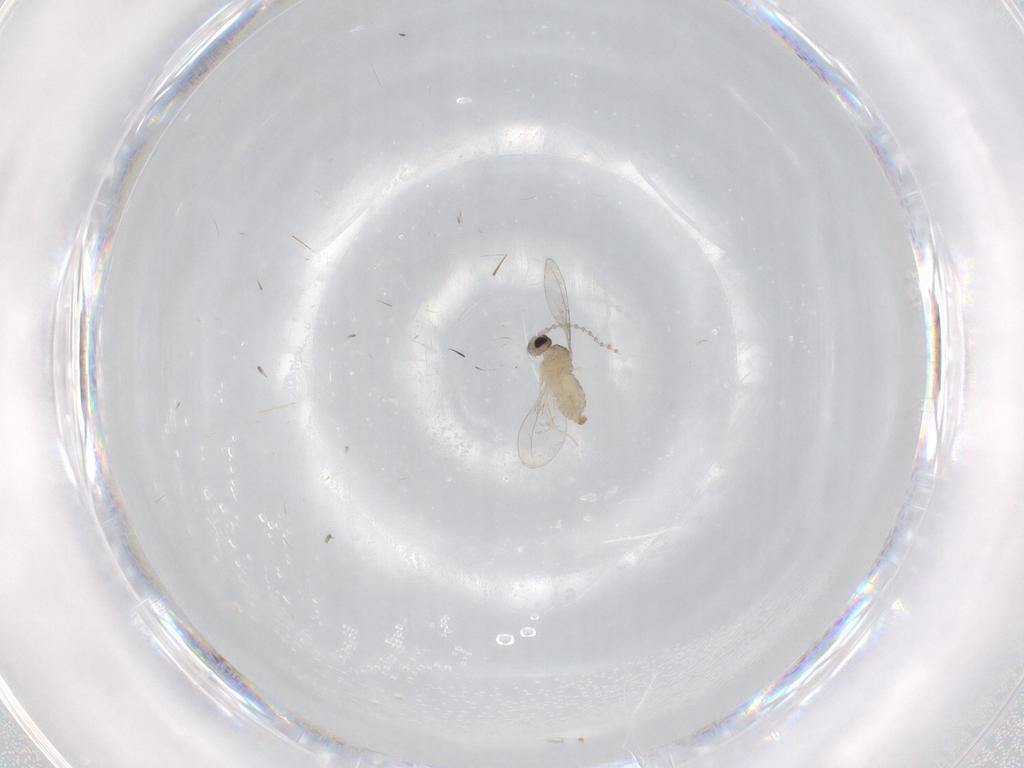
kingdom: Animalia
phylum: Arthropoda
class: Insecta
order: Diptera
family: Cecidomyiidae
